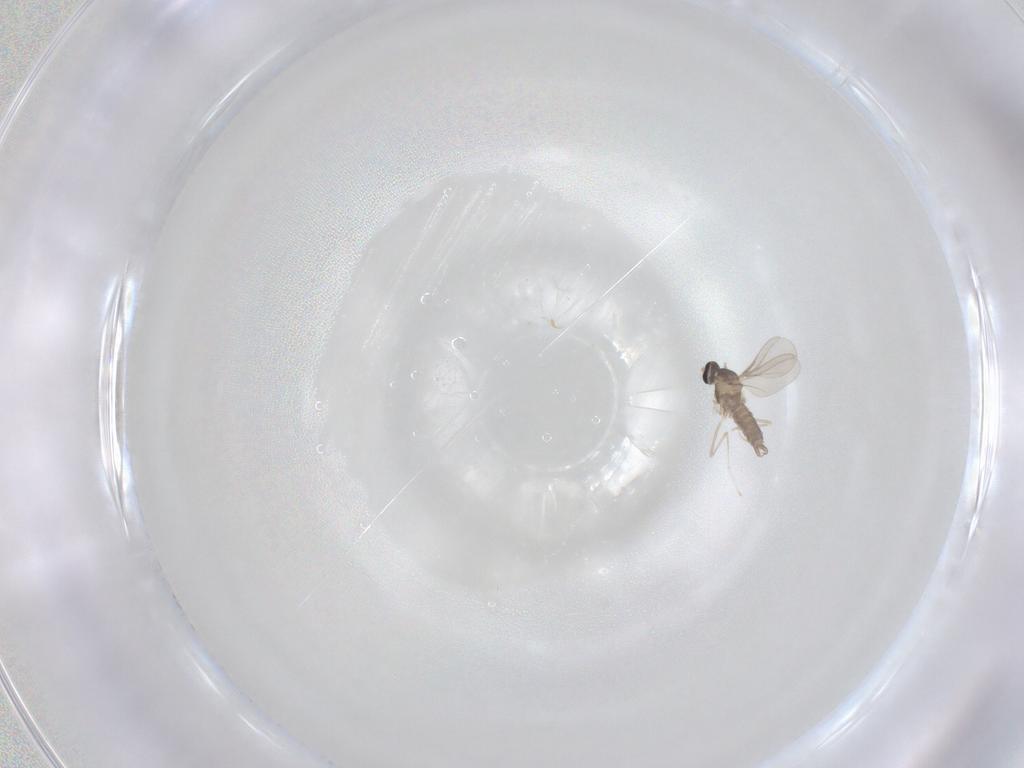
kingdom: Animalia
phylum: Arthropoda
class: Insecta
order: Diptera
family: Cecidomyiidae
